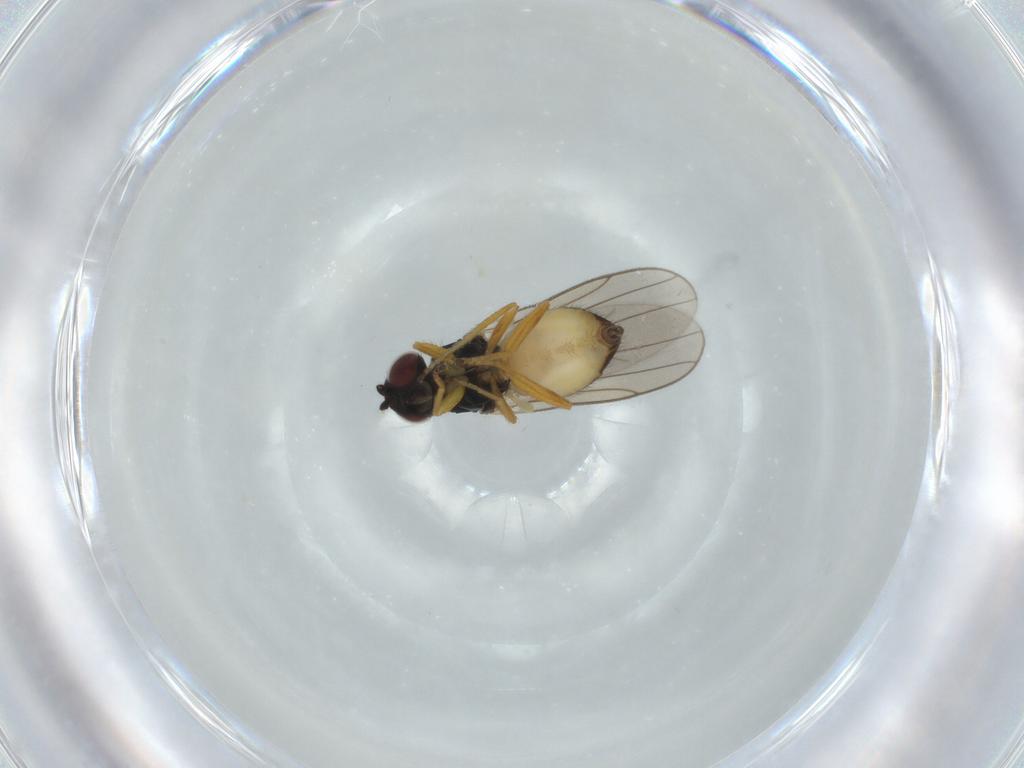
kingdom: Animalia
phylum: Arthropoda
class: Insecta
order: Diptera
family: Chloropidae
